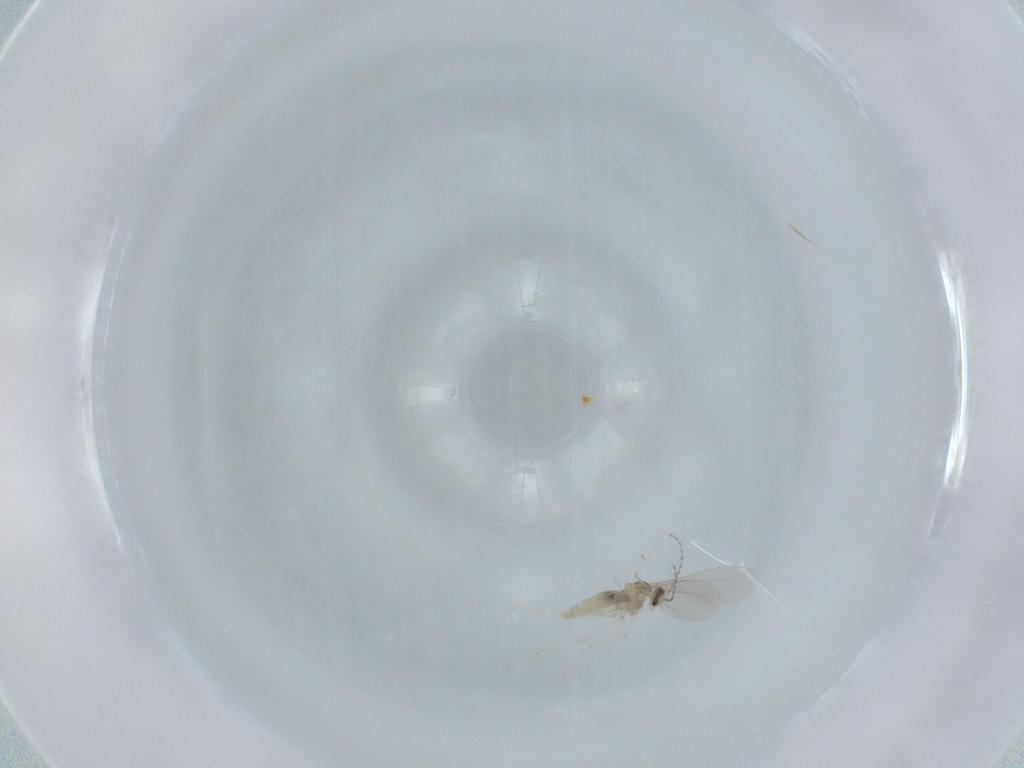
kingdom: Animalia
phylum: Arthropoda
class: Insecta
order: Diptera
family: Cecidomyiidae
